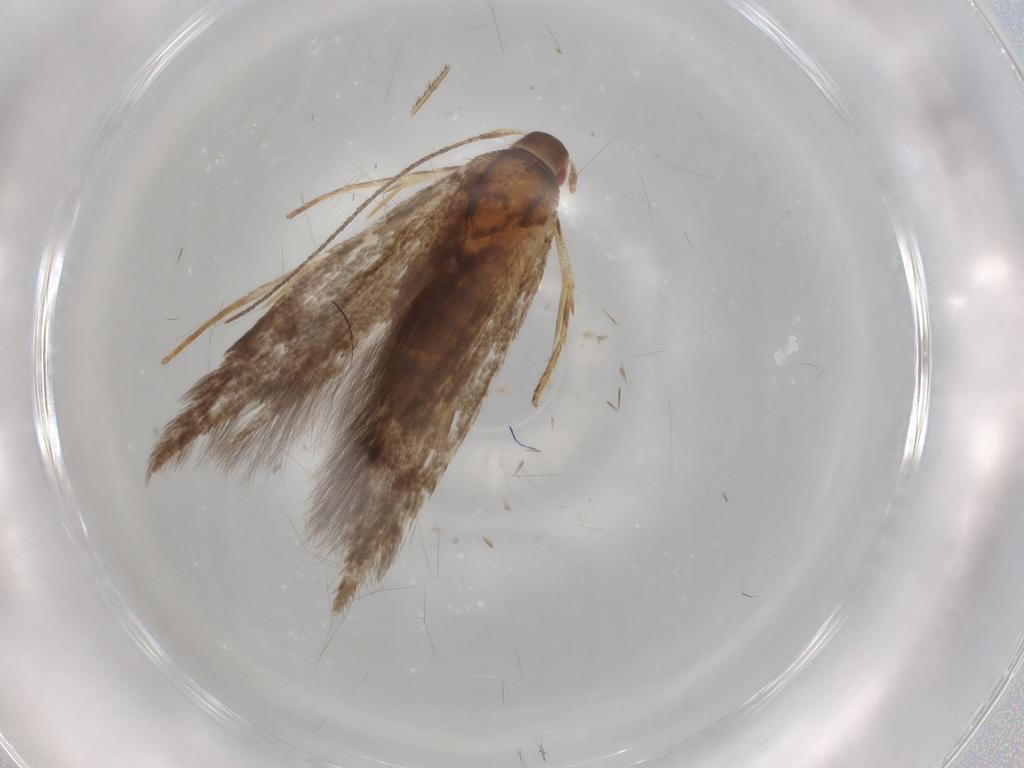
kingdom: Animalia
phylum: Arthropoda
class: Insecta
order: Lepidoptera
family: Cosmopterigidae
